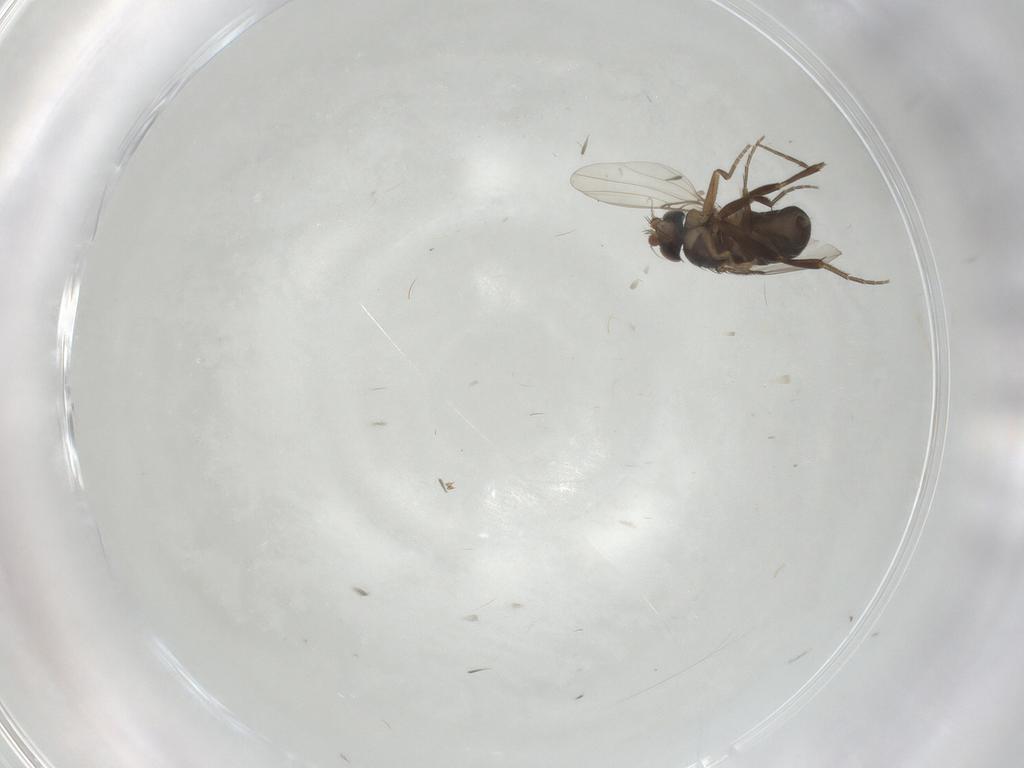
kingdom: Animalia
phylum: Arthropoda
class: Insecta
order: Diptera
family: Phoridae
